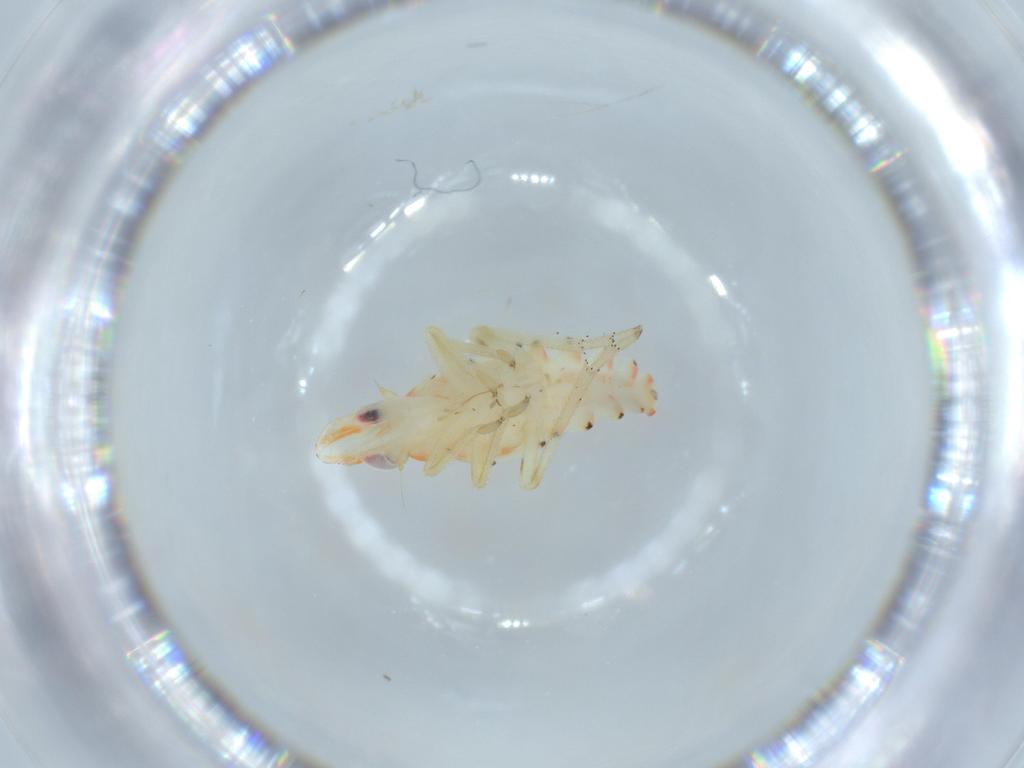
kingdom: Animalia
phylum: Arthropoda
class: Insecta
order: Hemiptera
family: Tropiduchidae
